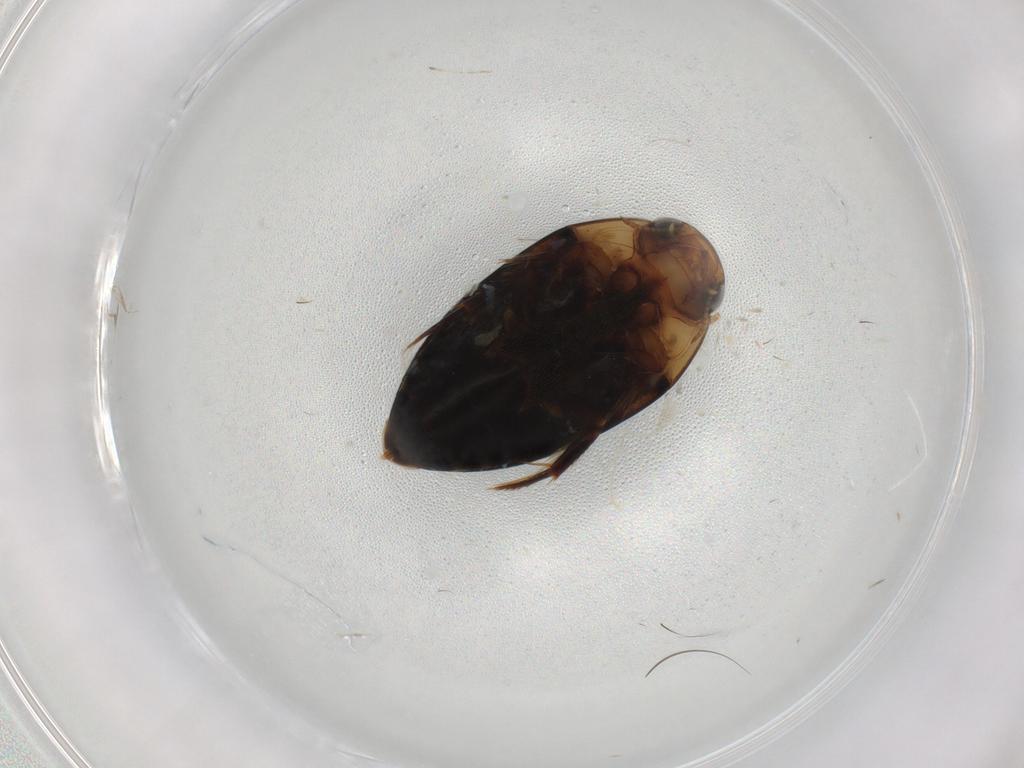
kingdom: Animalia
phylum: Arthropoda
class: Insecta
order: Coleoptera
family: Noteridae
